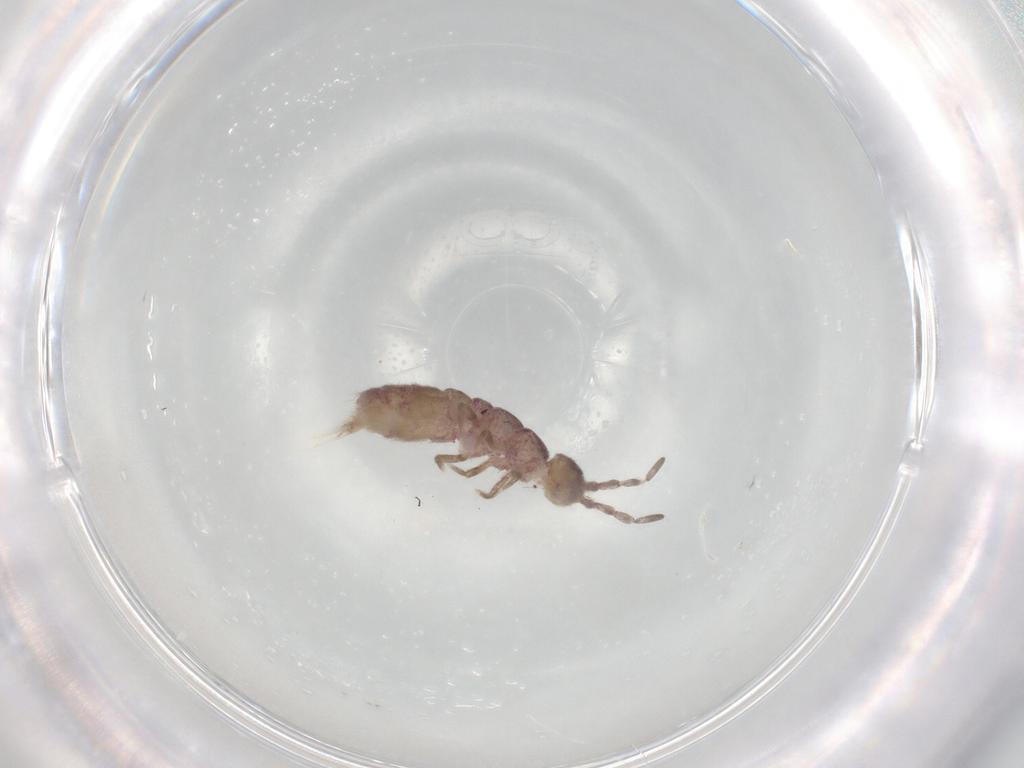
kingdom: Animalia
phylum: Arthropoda
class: Collembola
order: Entomobryomorpha
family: Isotomidae
